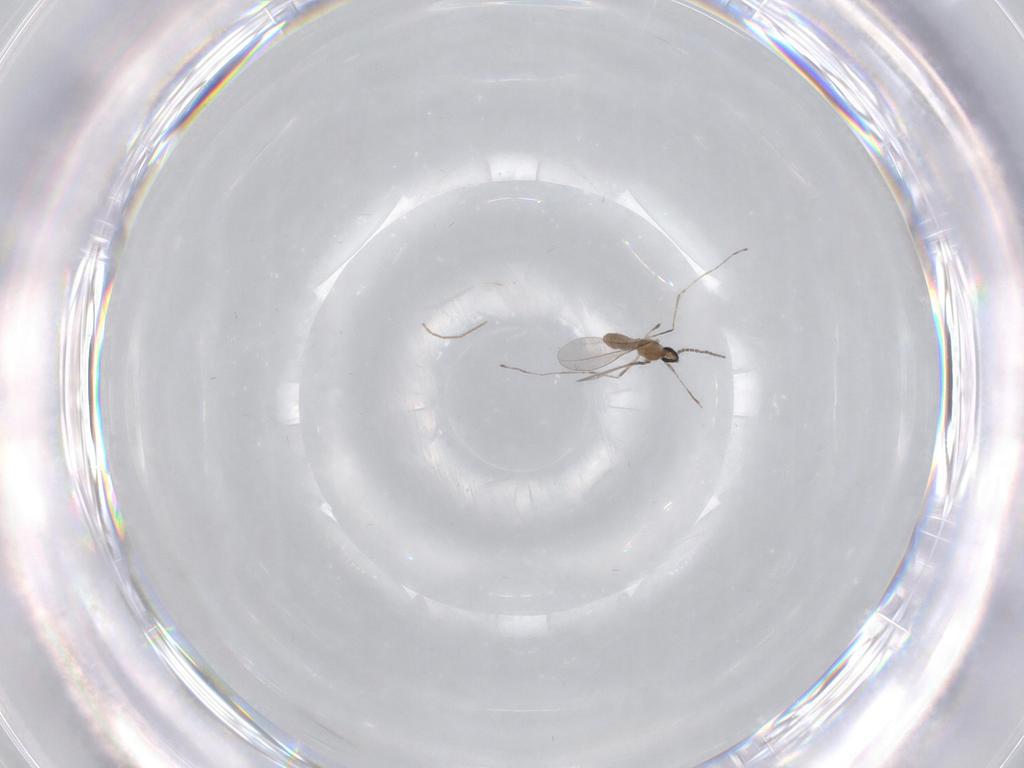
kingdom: Animalia
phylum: Arthropoda
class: Insecta
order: Diptera
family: Cecidomyiidae
